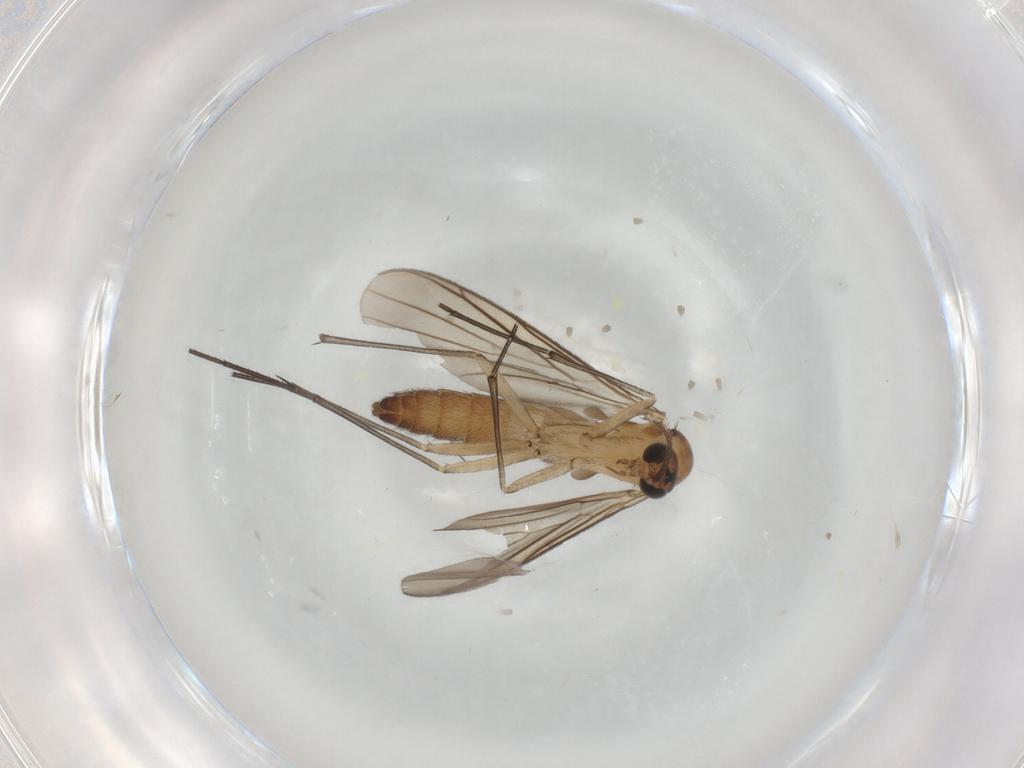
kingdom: Animalia
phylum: Arthropoda
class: Insecta
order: Diptera
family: Keroplatidae
